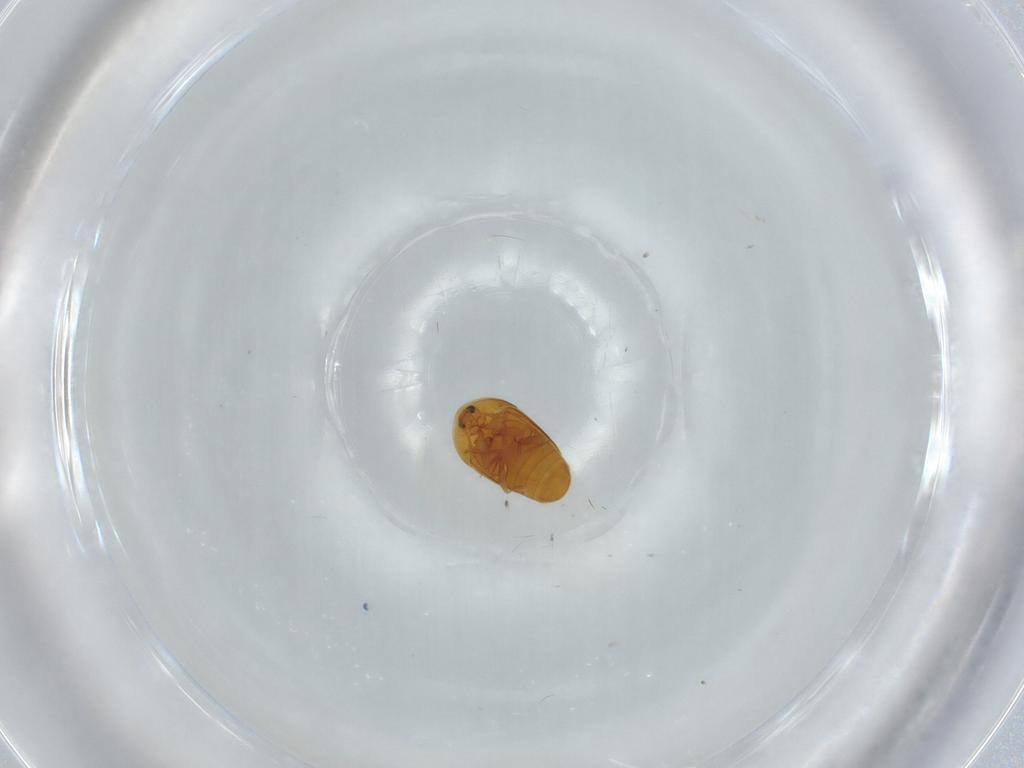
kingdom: Animalia
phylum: Arthropoda
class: Insecta
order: Coleoptera
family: Corylophidae
